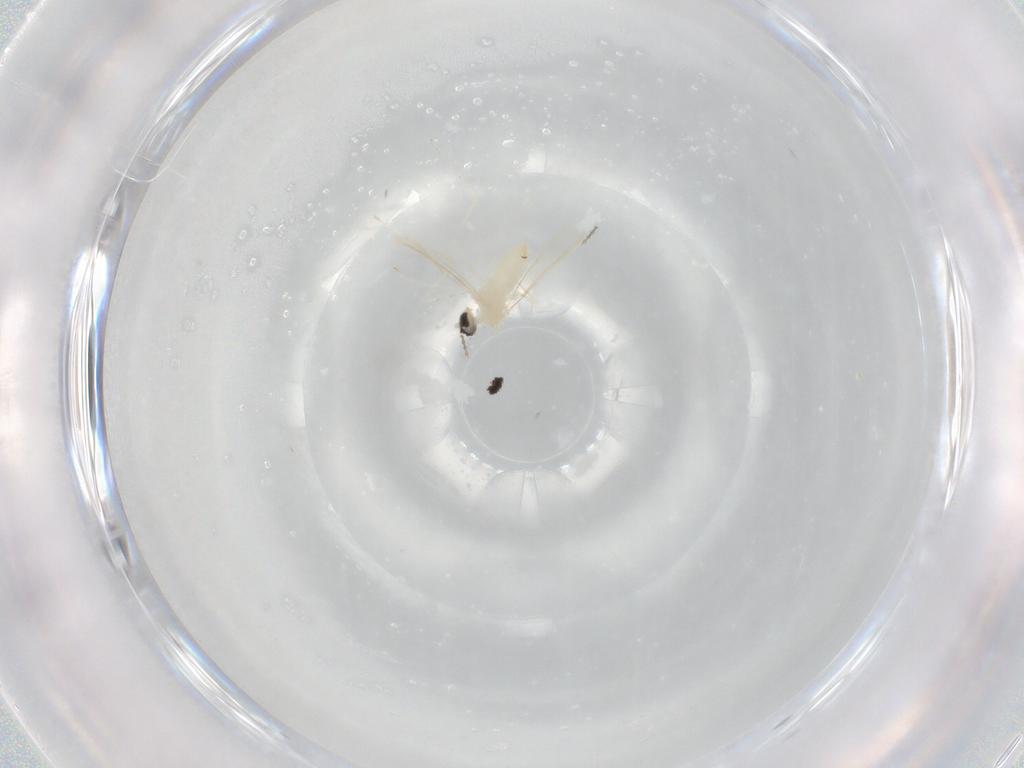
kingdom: Animalia
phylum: Arthropoda
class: Insecta
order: Diptera
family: Cecidomyiidae
